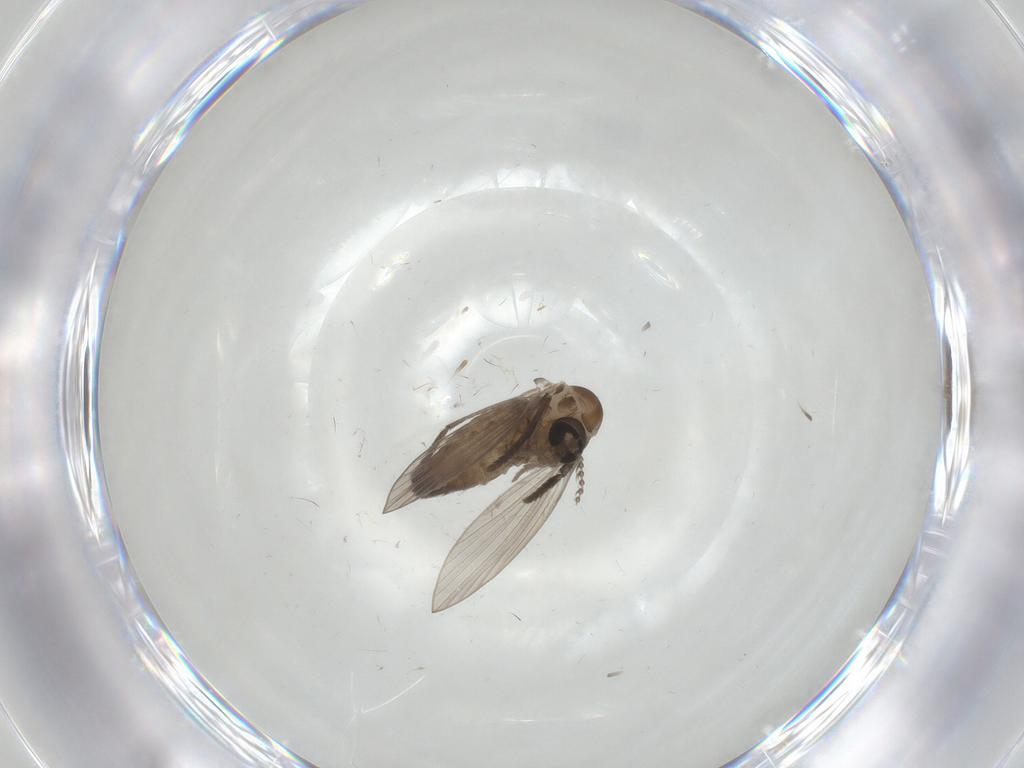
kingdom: Animalia
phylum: Arthropoda
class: Insecta
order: Diptera
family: Psychodidae
